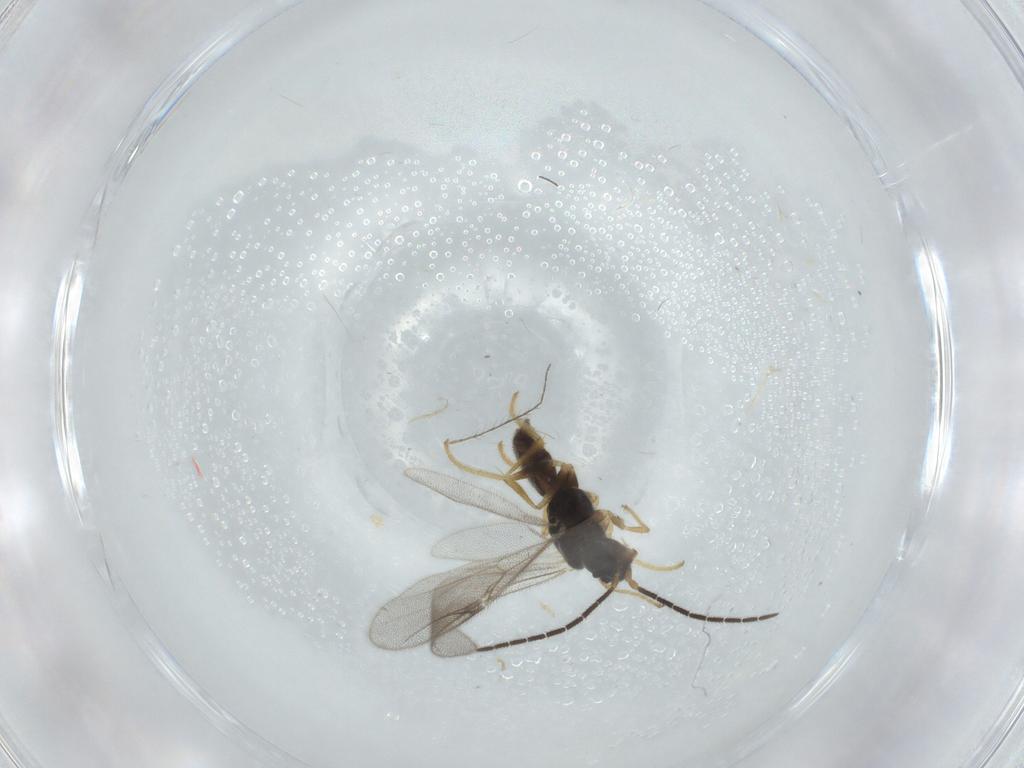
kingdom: Animalia
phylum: Arthropoda
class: Insecta
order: Hymenoptera
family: Dryinidae
